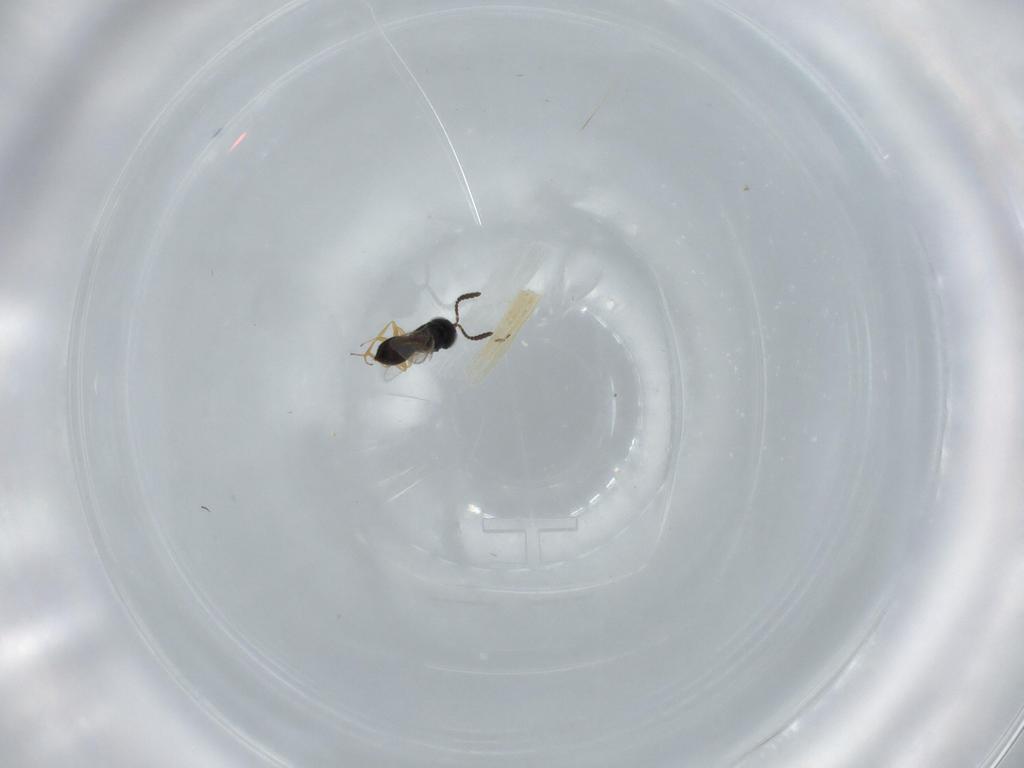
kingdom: Animalia
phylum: Arthropoda
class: Insecta
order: Hymenoptera
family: Scelionidae
